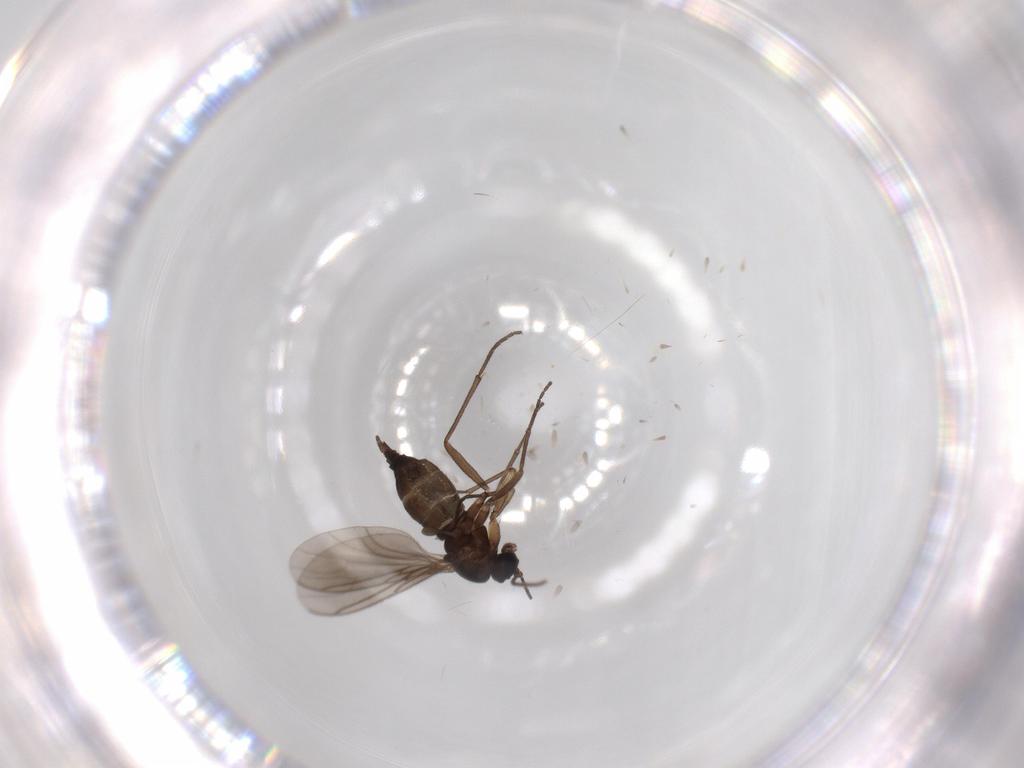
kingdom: Animalia
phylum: Arthropoda
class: Insecta
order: Diptera
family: Sciaridae
